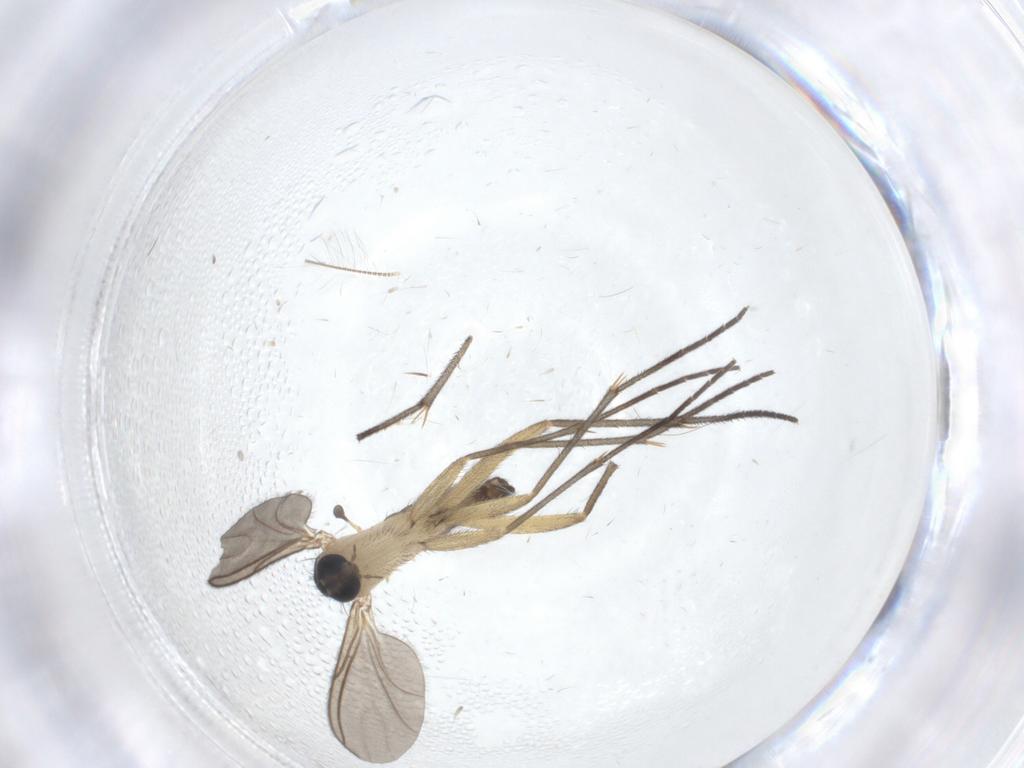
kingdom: Animalia
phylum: Arthropoda
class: Insecta
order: Diptera
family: Sciaridae
